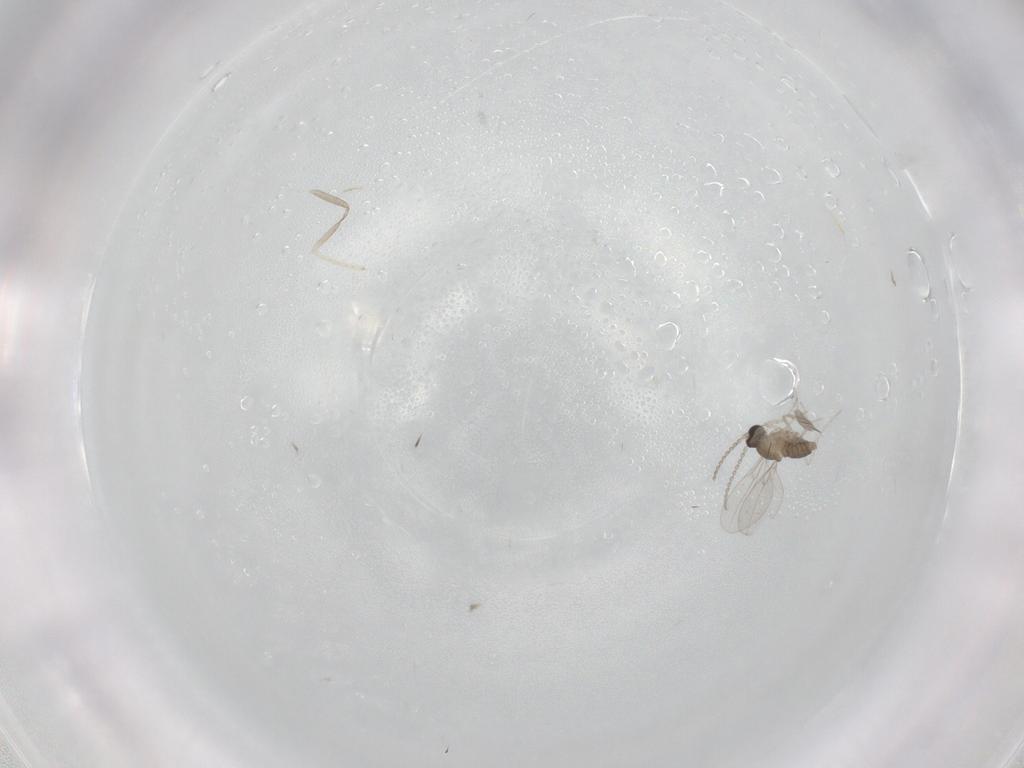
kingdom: Animalia
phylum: Arthropoda
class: Insecta
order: Diptera
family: Cecidomyiidae
